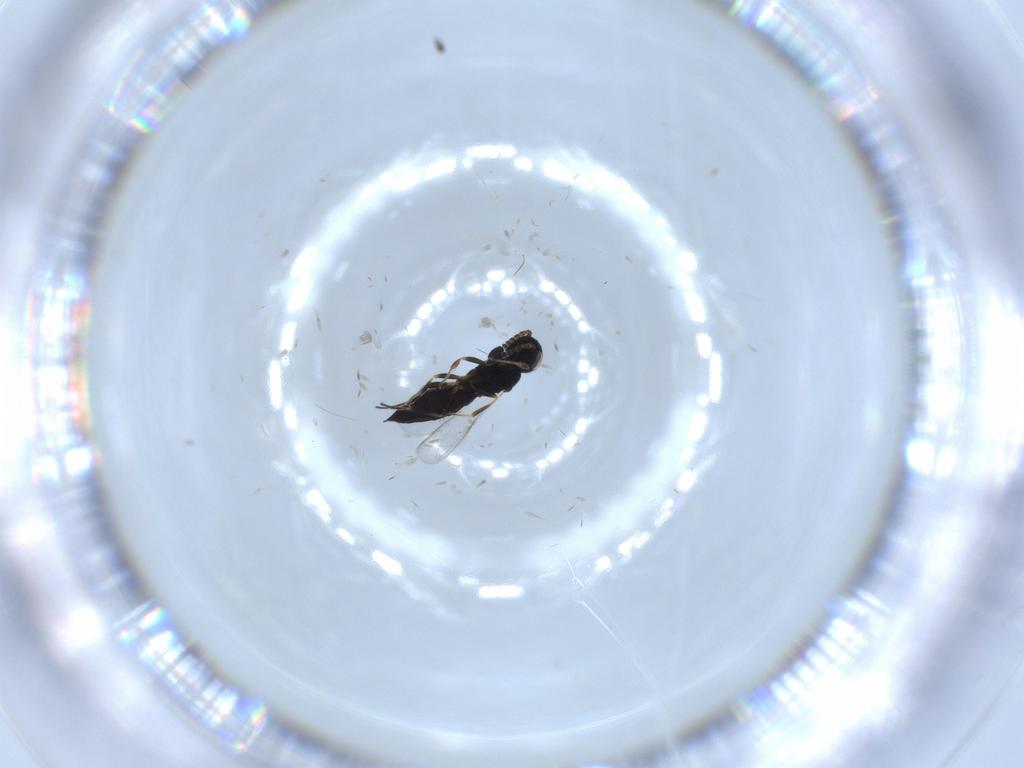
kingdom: Animalia
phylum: Arthropoda
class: Insecta
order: Hymenoptera
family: Scelionidae
